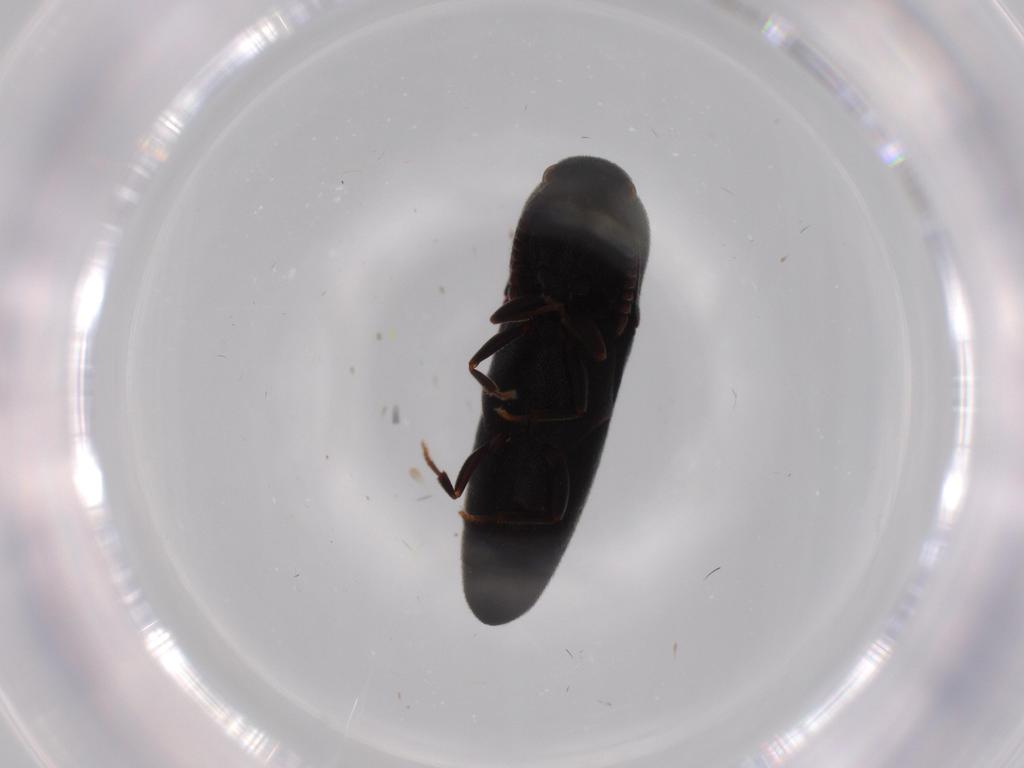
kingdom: Animalia
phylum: Arthropoda
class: Insecta
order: Coleoptera
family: Eucnemidae
